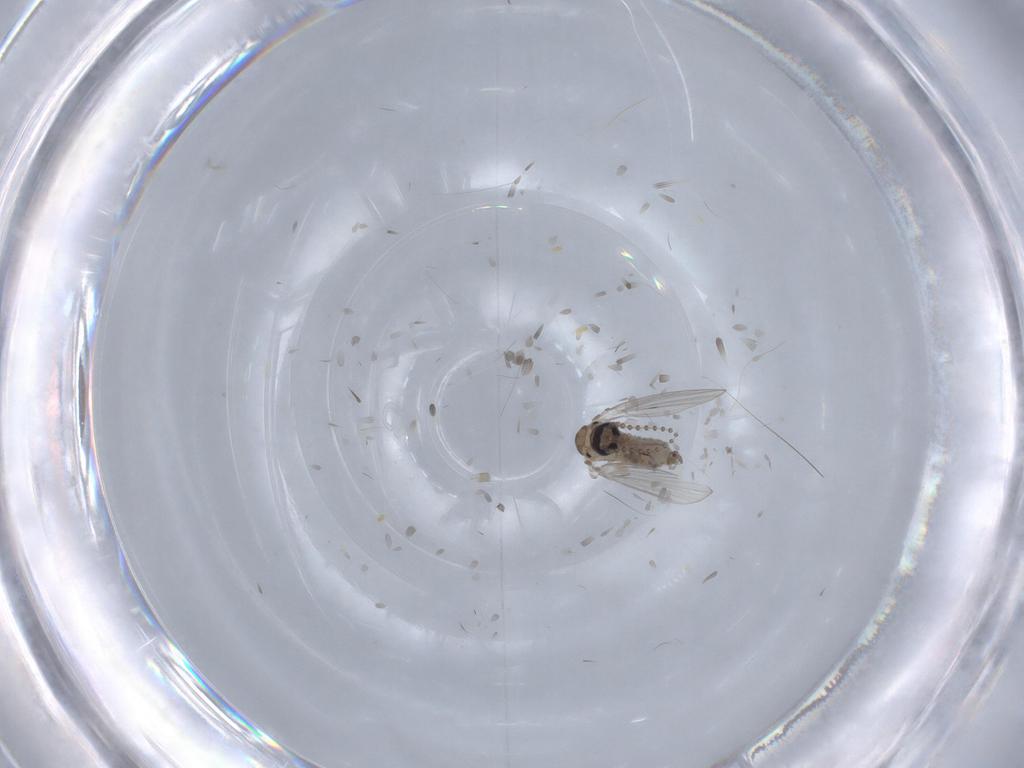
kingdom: Animalia
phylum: Arthropoda
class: Insecta
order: Diptera
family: Psychodidae
